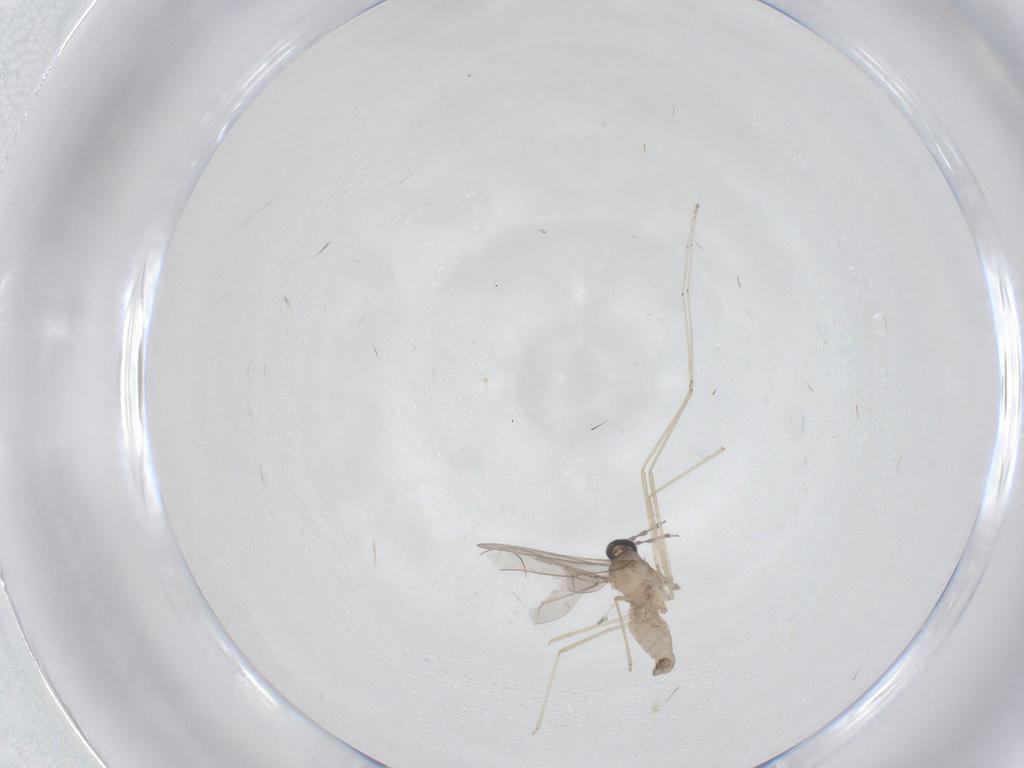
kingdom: Animalia
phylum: Arthropoda
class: Insecta
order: Diptera
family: Cecidomyiidae
